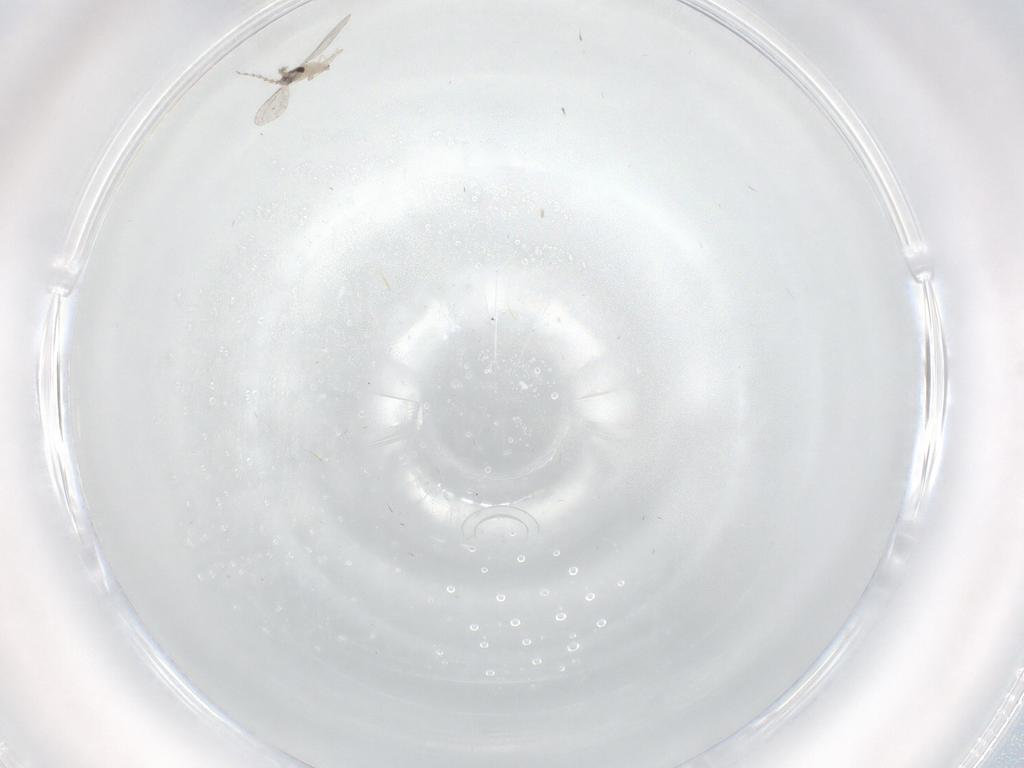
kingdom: Animalia
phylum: Arthropoda
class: Insecta
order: Diptera
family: Cecidomyiidae
